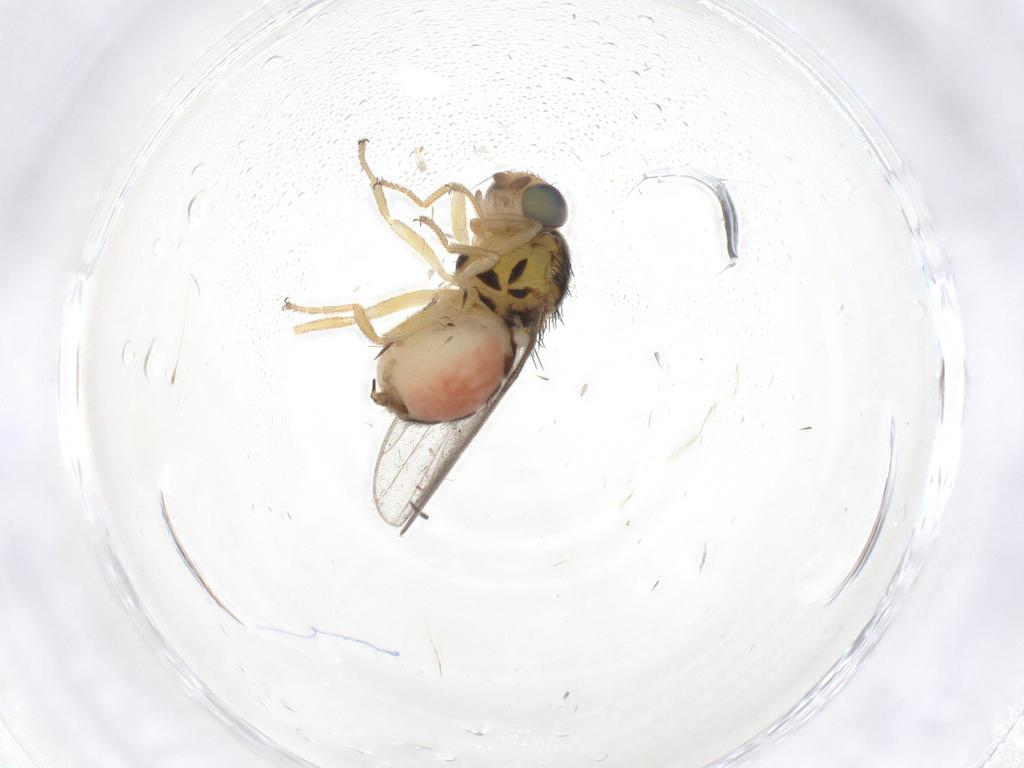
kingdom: Animalia
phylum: Arthropoda
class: Insecta
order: Diptera
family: Chloropidae
